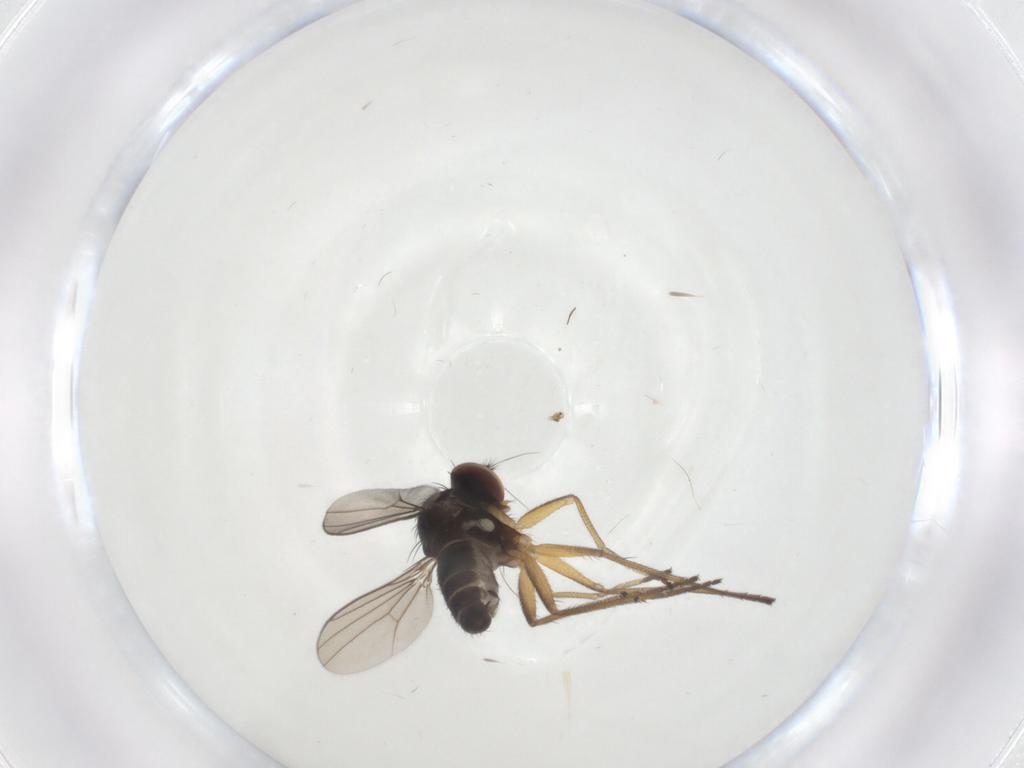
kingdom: Animalia
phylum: Arthropoda
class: Insecta
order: Diptera
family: Dolichopodidae
